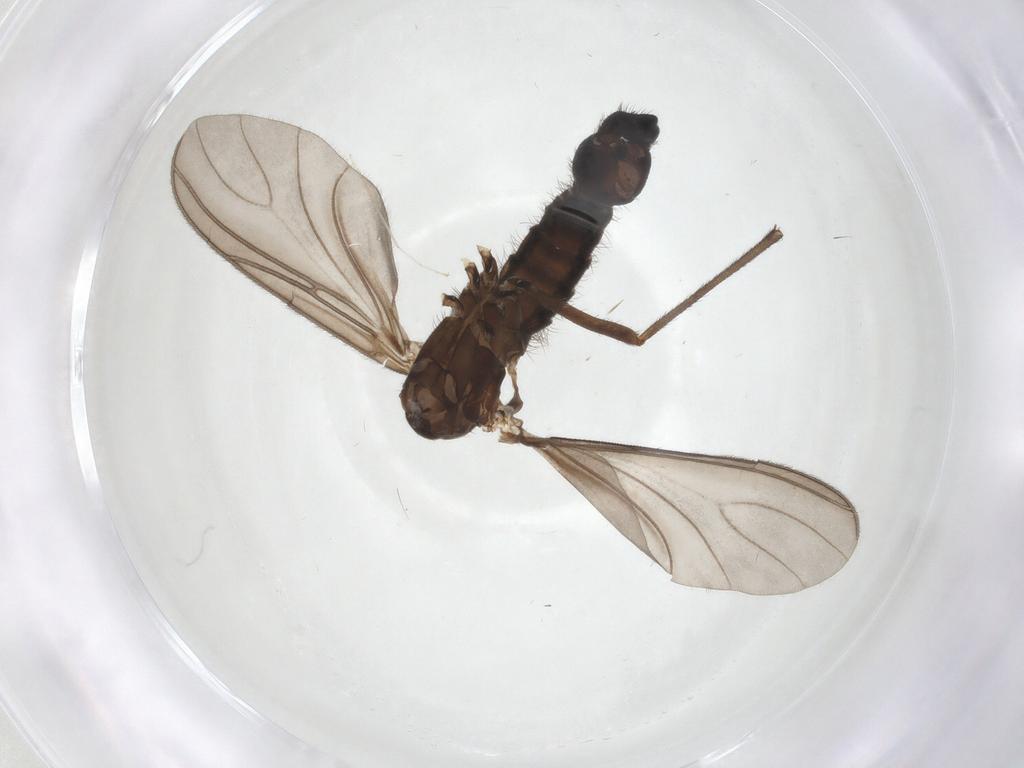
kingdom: Animalia
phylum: Arthropoda
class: Insecta
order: Diptera
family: Sciaridae
